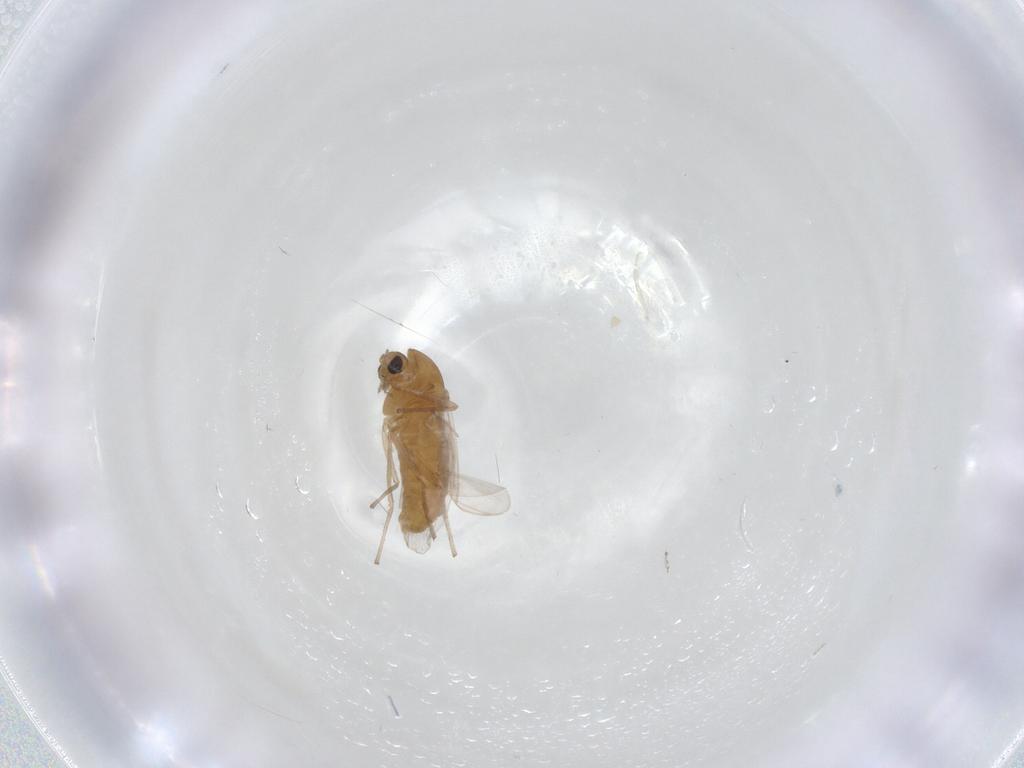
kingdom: Animalia
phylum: Arthropoda
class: Insecta
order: Diptera
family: Chironomidae
